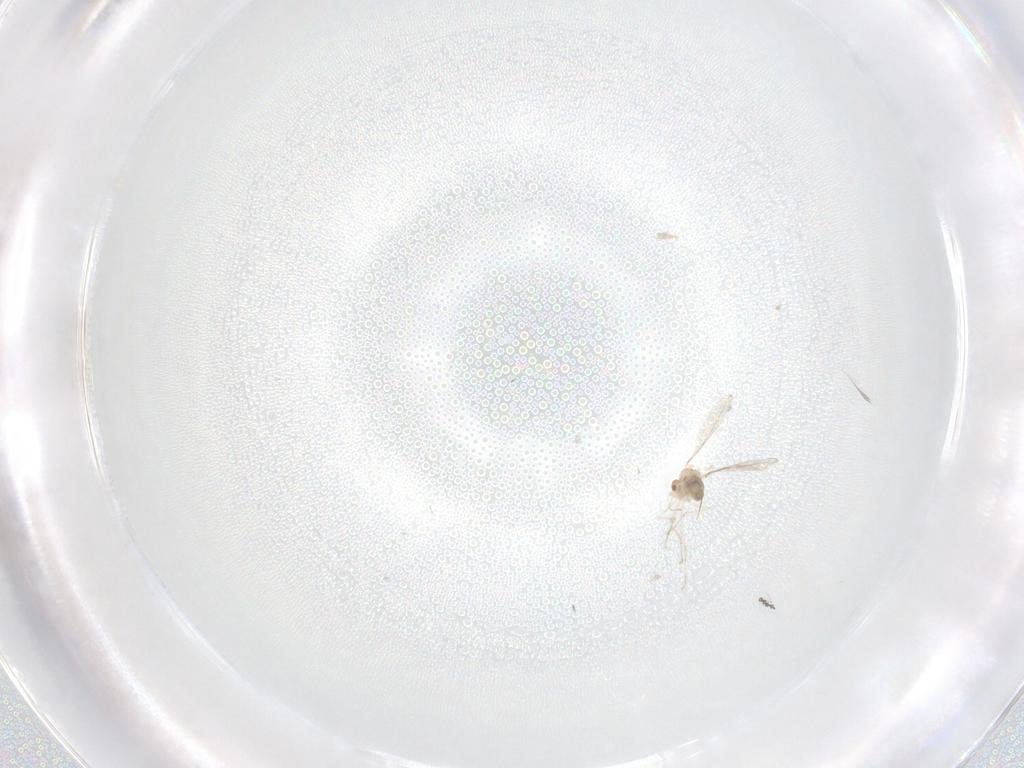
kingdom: Animalia
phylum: Arthropoda
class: Insecta
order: Diptera
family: Cecidomyiidae
